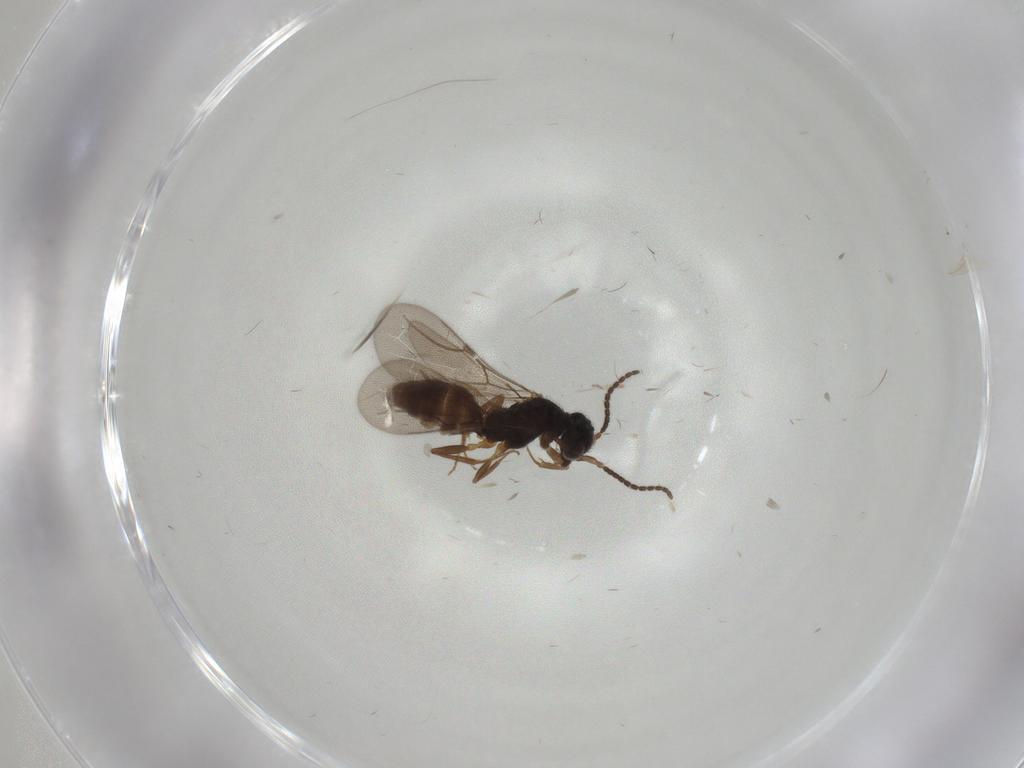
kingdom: Animalia
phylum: Arthropoda
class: Insecta
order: Hymenoptera
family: Bethylidae
